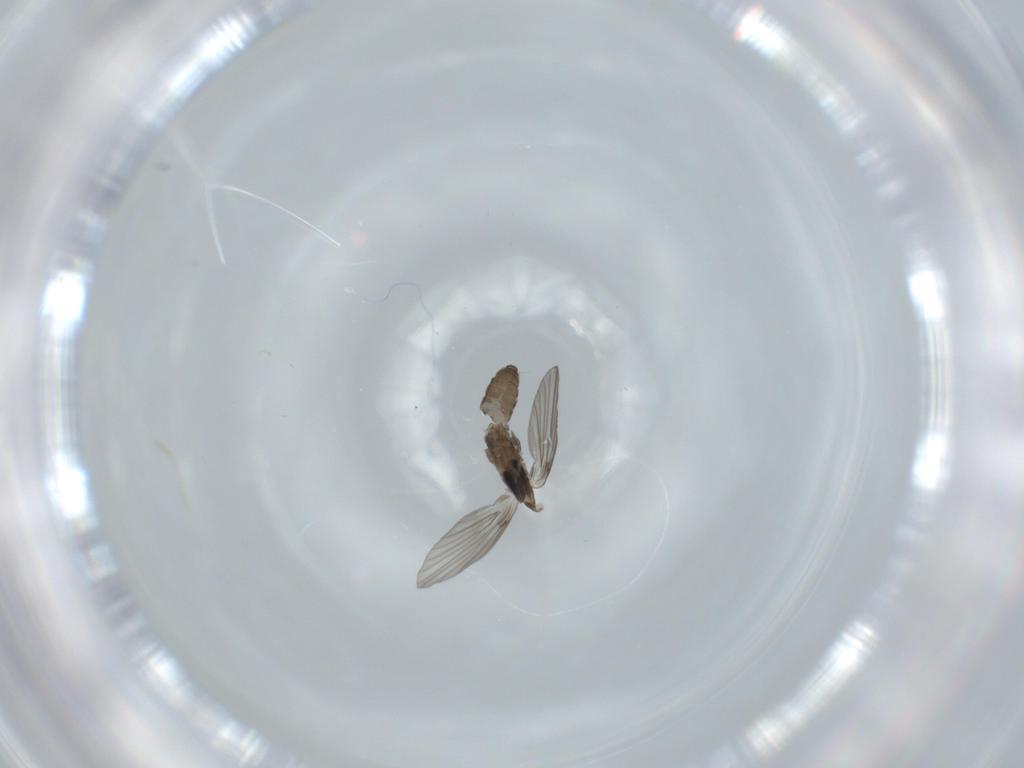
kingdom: Animalia
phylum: Arthropoda
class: Insecta
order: Diptera
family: Psychodidae
